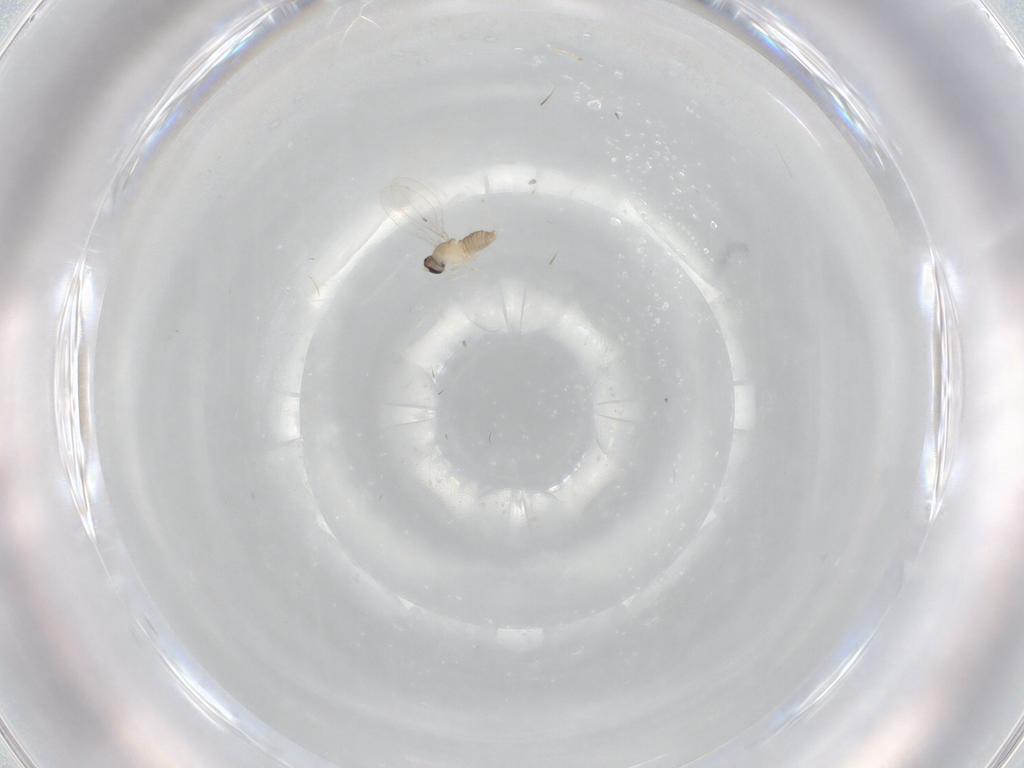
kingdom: Animalia
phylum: Arthropoda
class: Insecta
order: Diptera
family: Cecidomyiidae
